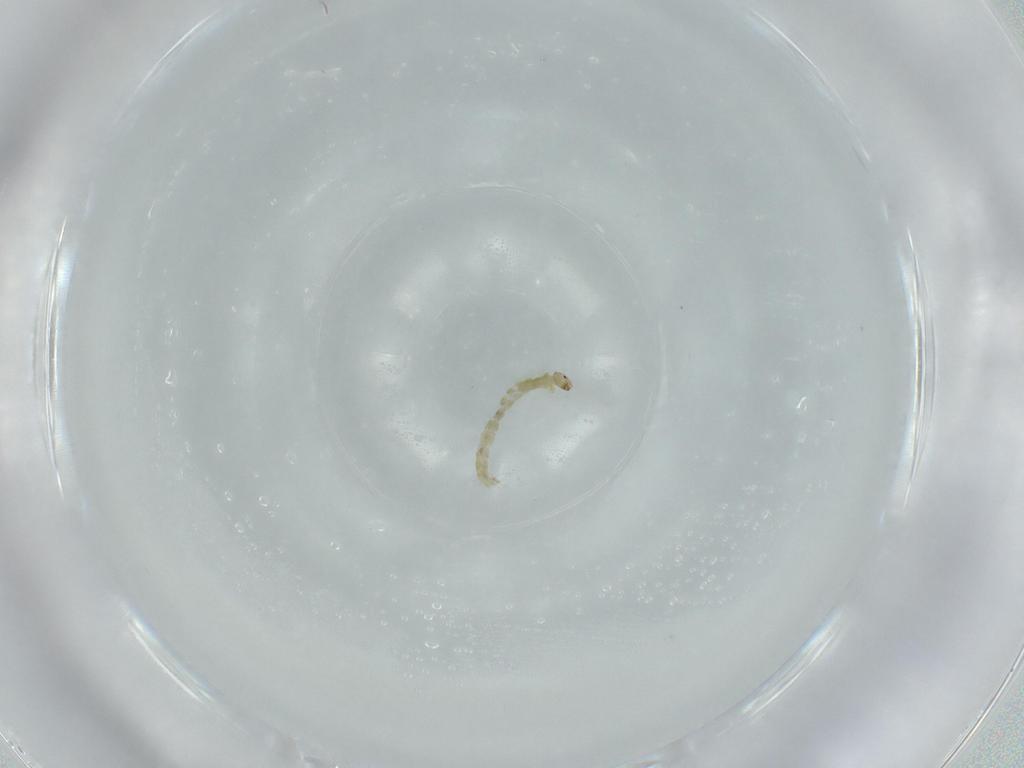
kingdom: Animalia
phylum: Arthropoda
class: Insecta
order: Diptera
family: Chironomidae
